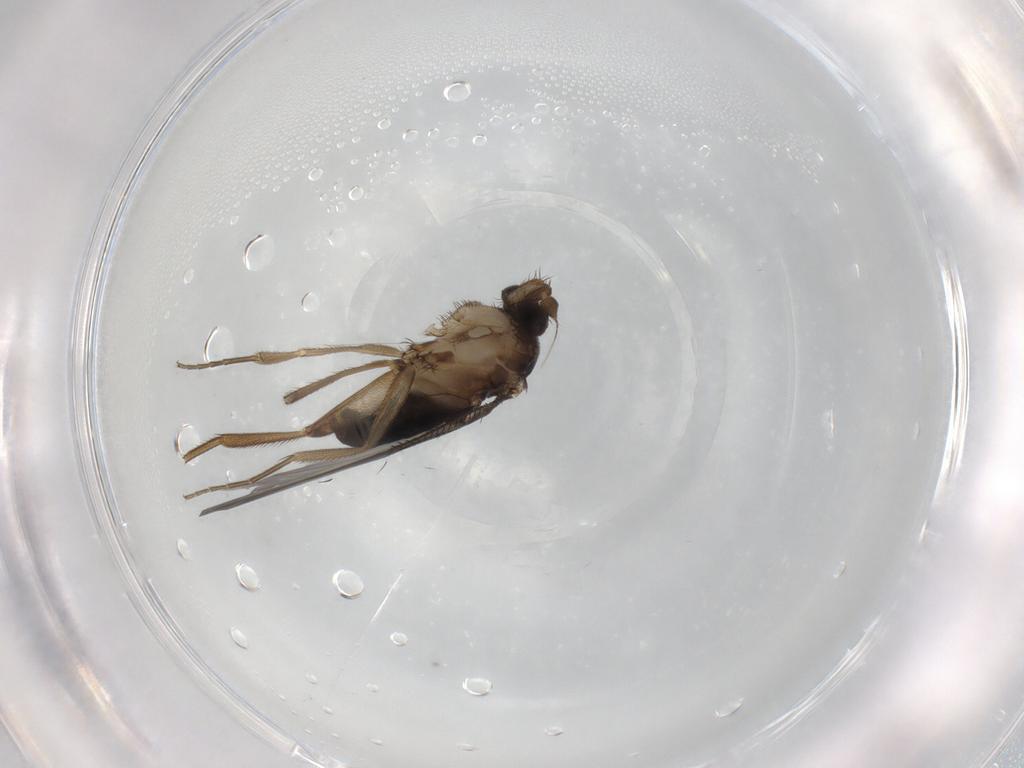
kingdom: Animalia
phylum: Arthropoda
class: Insecta
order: Diptera
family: Phoridae
